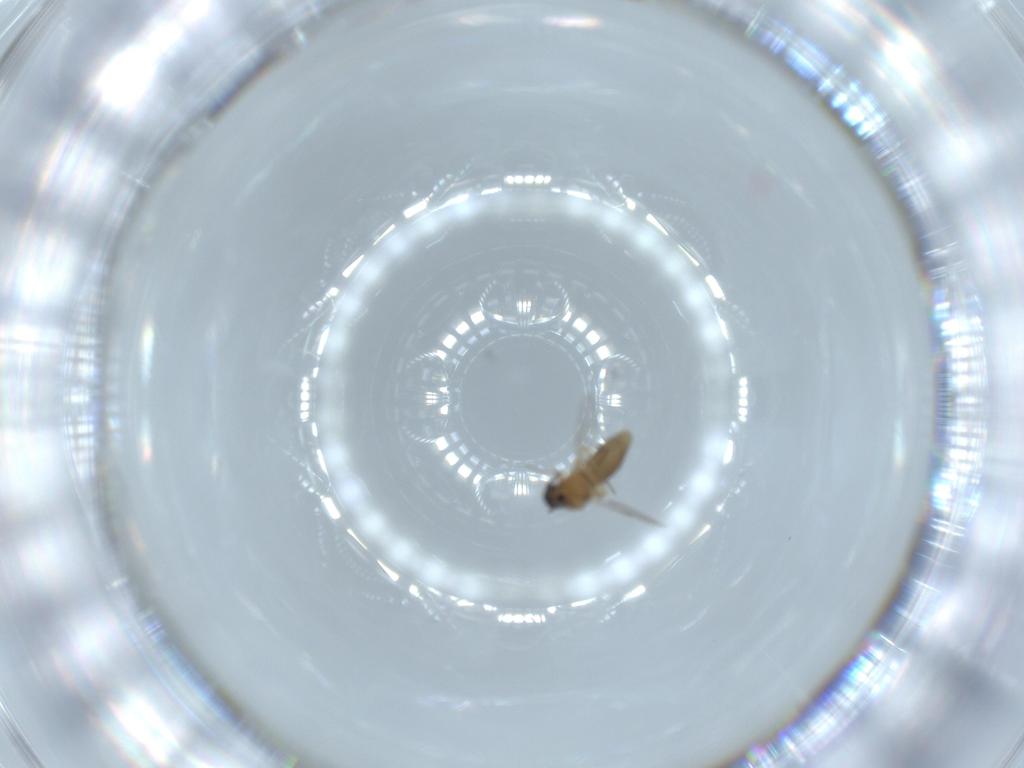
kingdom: Animalia
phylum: Arthropoda
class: Insecta
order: Diptera
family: Ceratopogonidae
